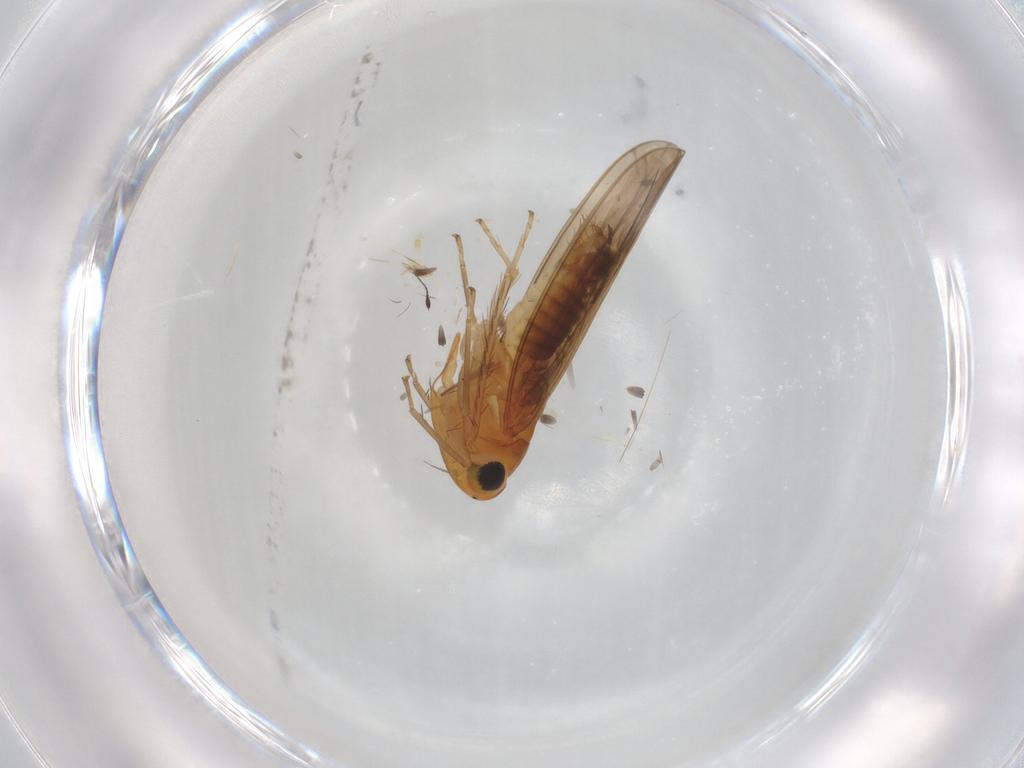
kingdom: Animalia
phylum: Arthropoda
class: Insecta
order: Hemiptera
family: Cicadellidae
